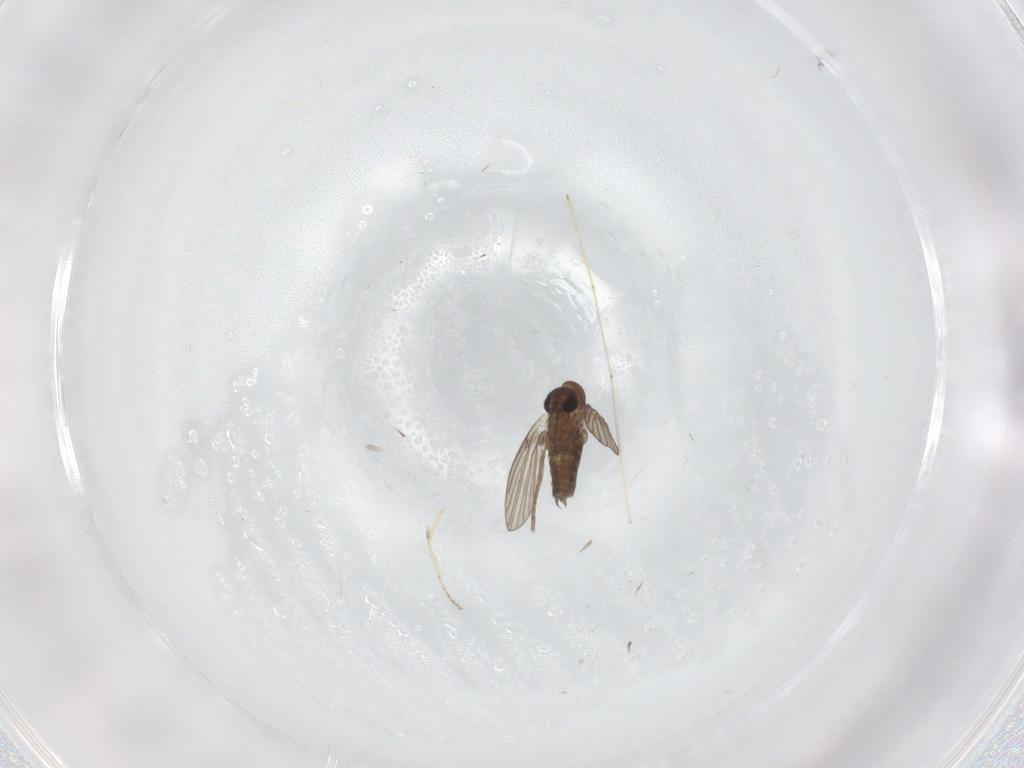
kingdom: Animalia
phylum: Arthropoda
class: Insecta
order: Diptera
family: Ceratopogonidae
